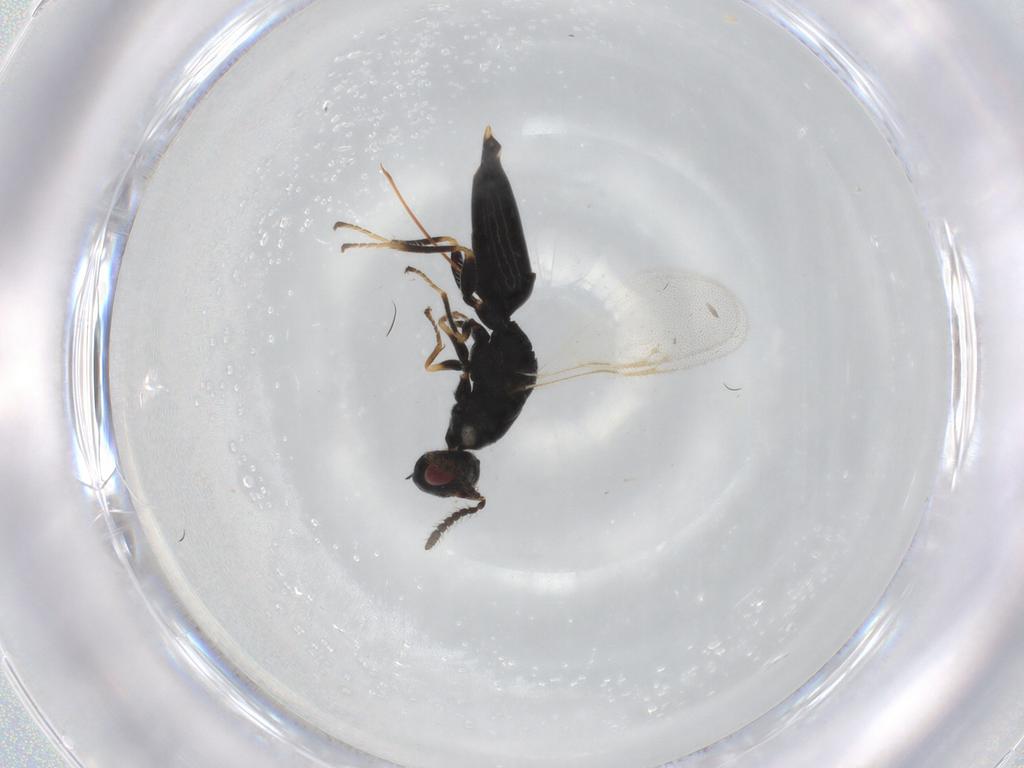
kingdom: Animalia
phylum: Arthropoda
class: Insecta
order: Hymenoptera
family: Eurytomidae
